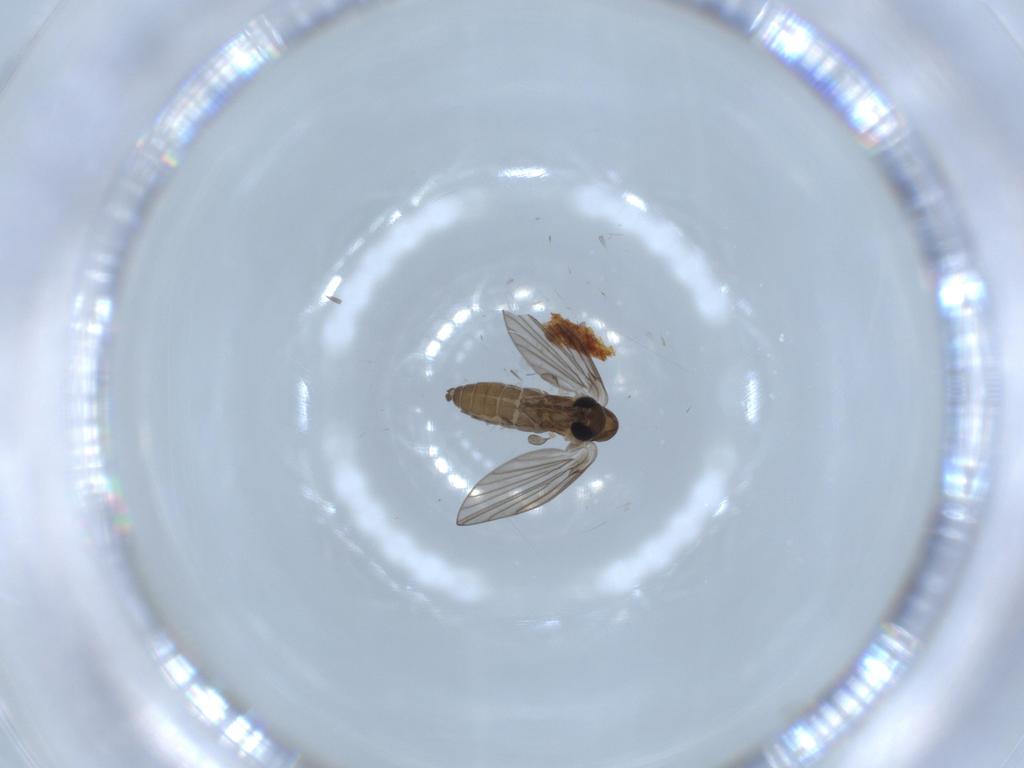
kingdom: Animalia
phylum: Arthropoda
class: Insecta
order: Diptera
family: Psychodidae
